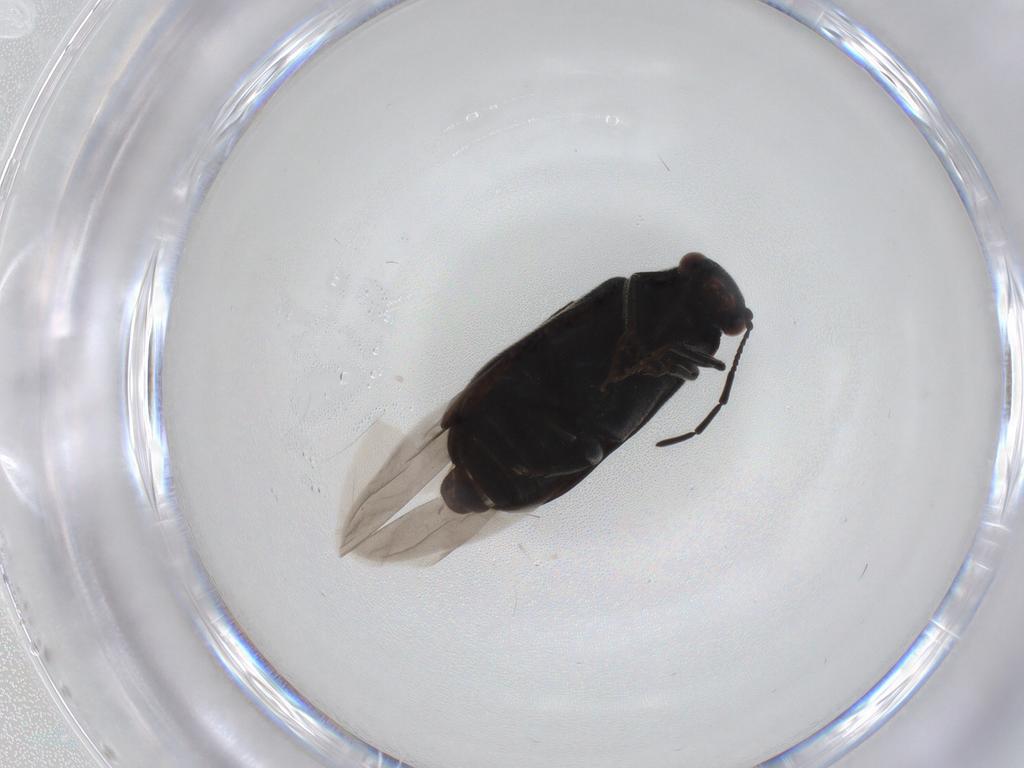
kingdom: Animalia
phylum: Arthropoda
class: Insecta
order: Coleoptera
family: Ptinidae
